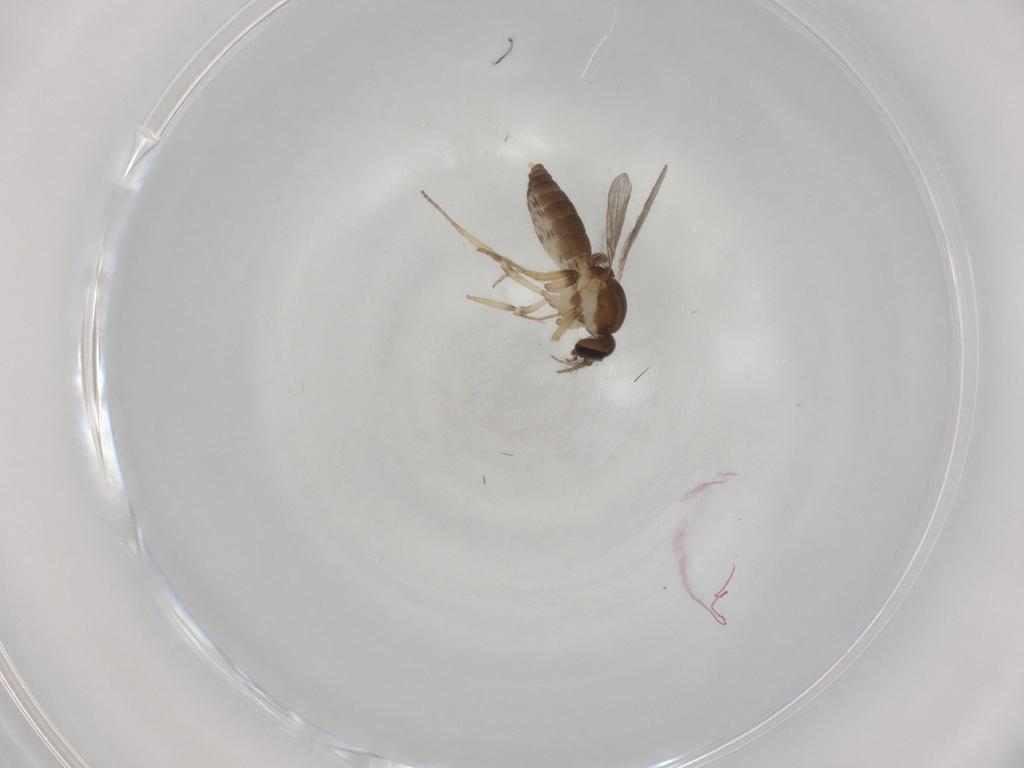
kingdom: Animalia
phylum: Arthropoda
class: Insecta
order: Diptera
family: Ceratopogonidae
